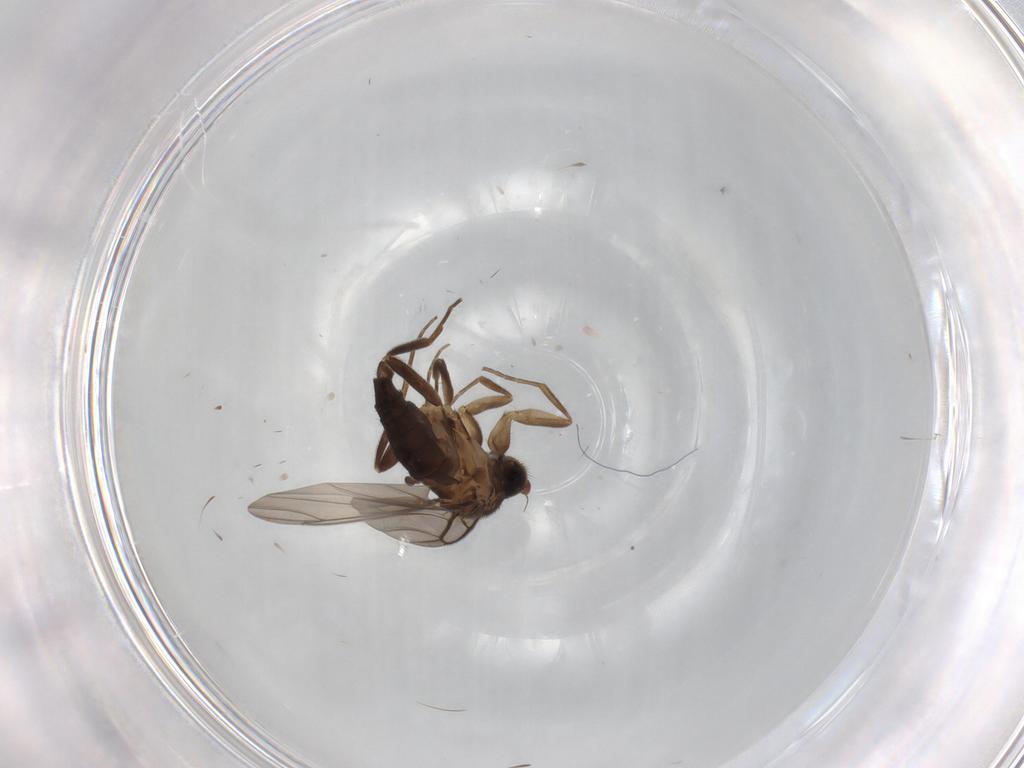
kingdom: Animalia
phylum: Arthropoda
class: Insecta
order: Diptera
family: Phoridae
